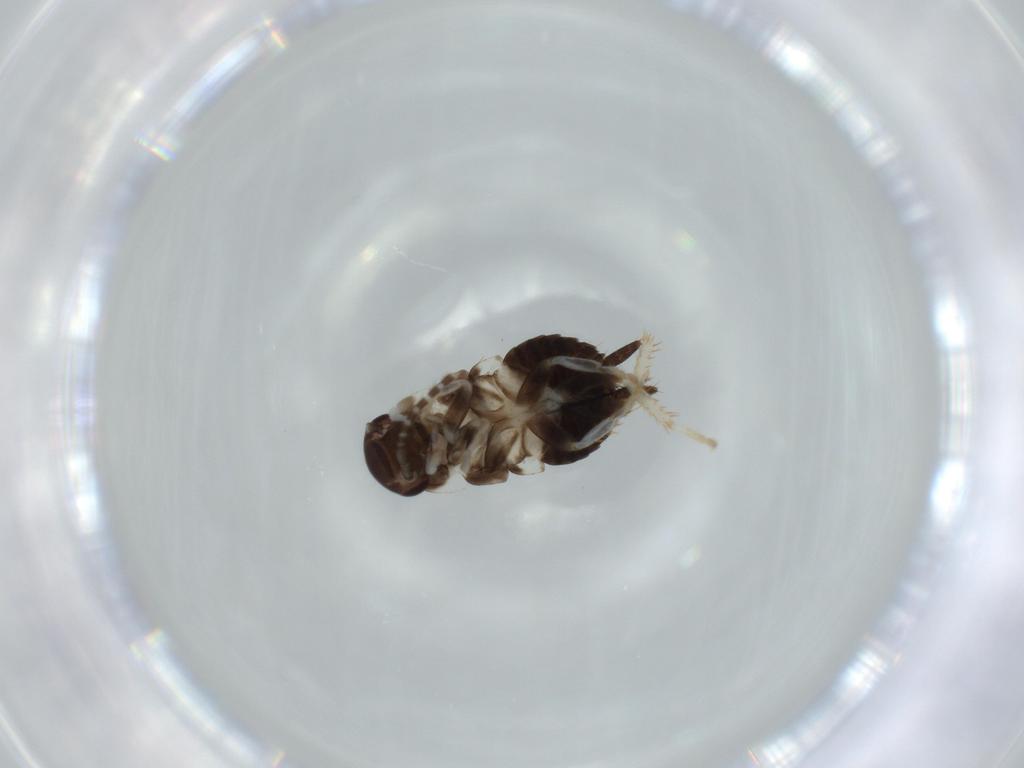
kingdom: Animalia
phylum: Arthropoda
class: Insecta
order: Blattodea
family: Ectobiidae
